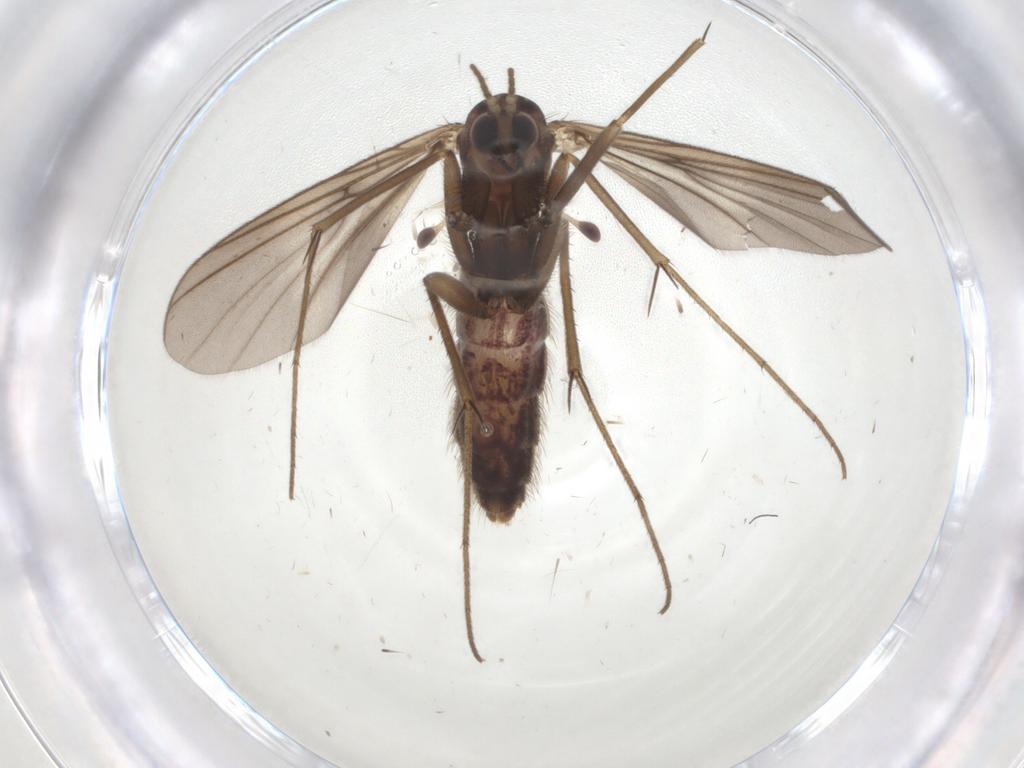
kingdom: Animalia
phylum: Arthropoda
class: Insecta
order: Diptera
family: Mycetophilidae
